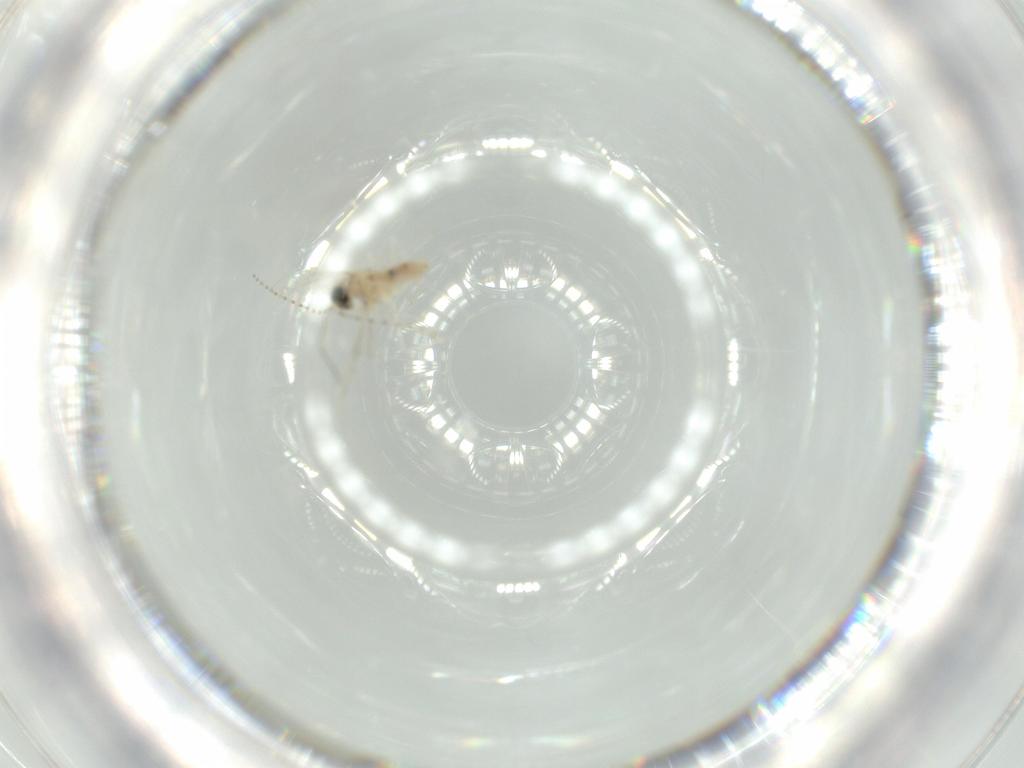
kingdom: Animalia
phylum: Arthropoda
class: Insecta
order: Diptera
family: Cecidomyiidae
